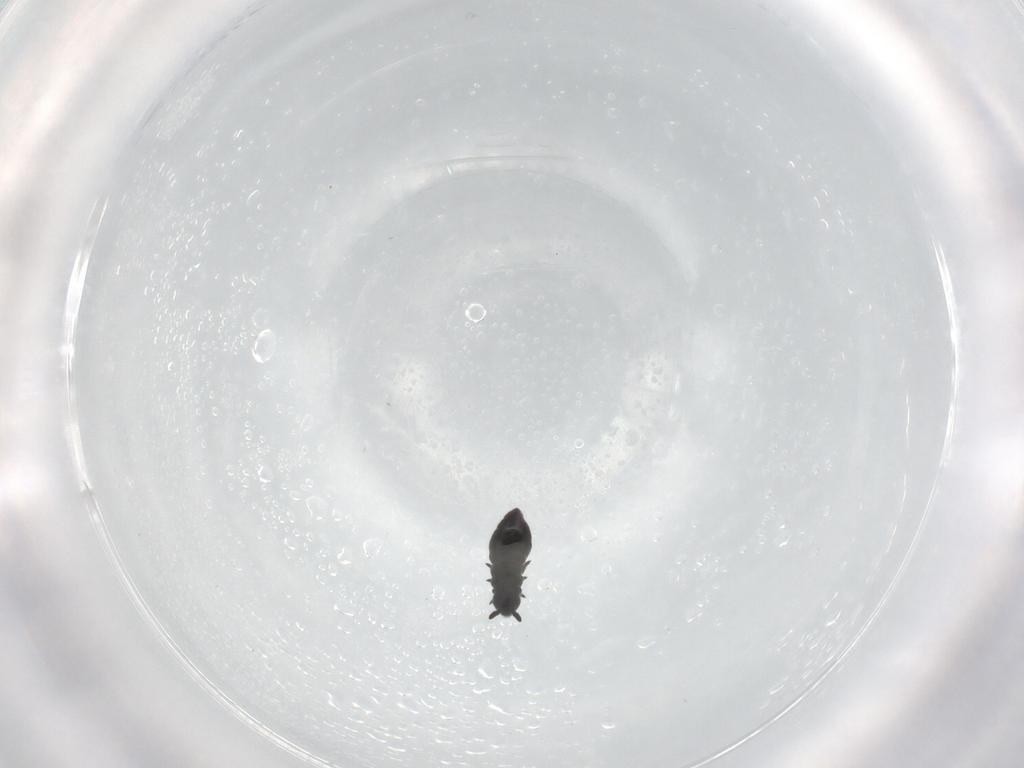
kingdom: Animalia
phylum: Arthropoda
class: Collembola
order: Poduromorpha
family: Hypogastruridae
